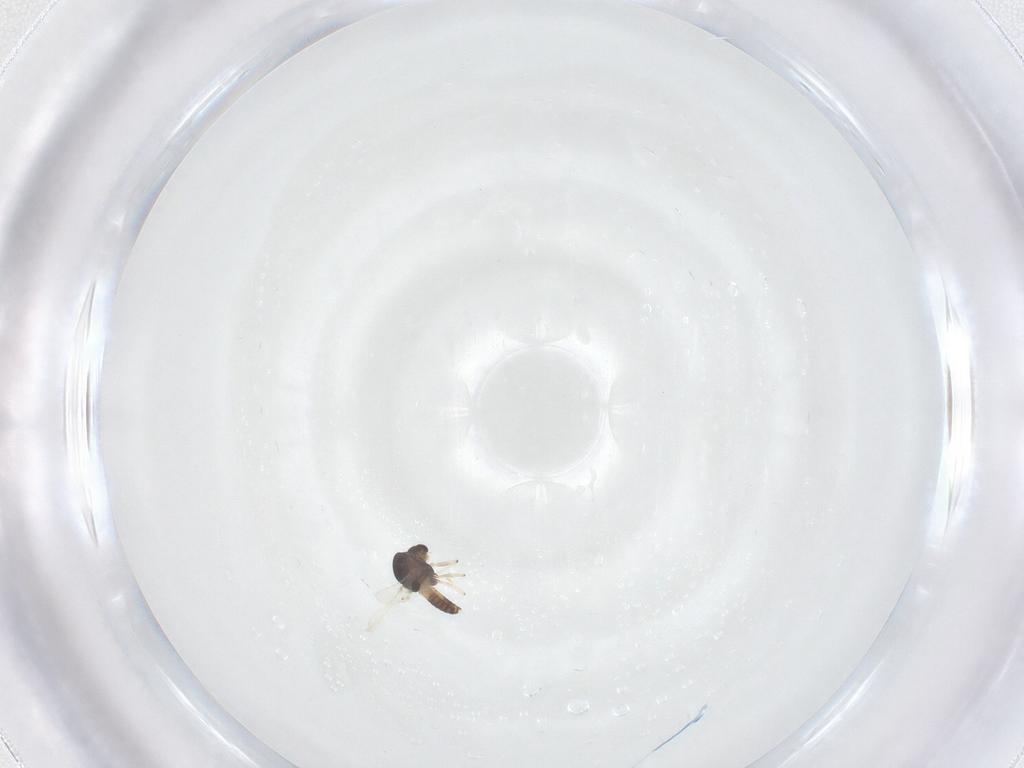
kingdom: Animalia
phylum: Arthropoda
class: Insecta
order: Diptera
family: Chironomidae
